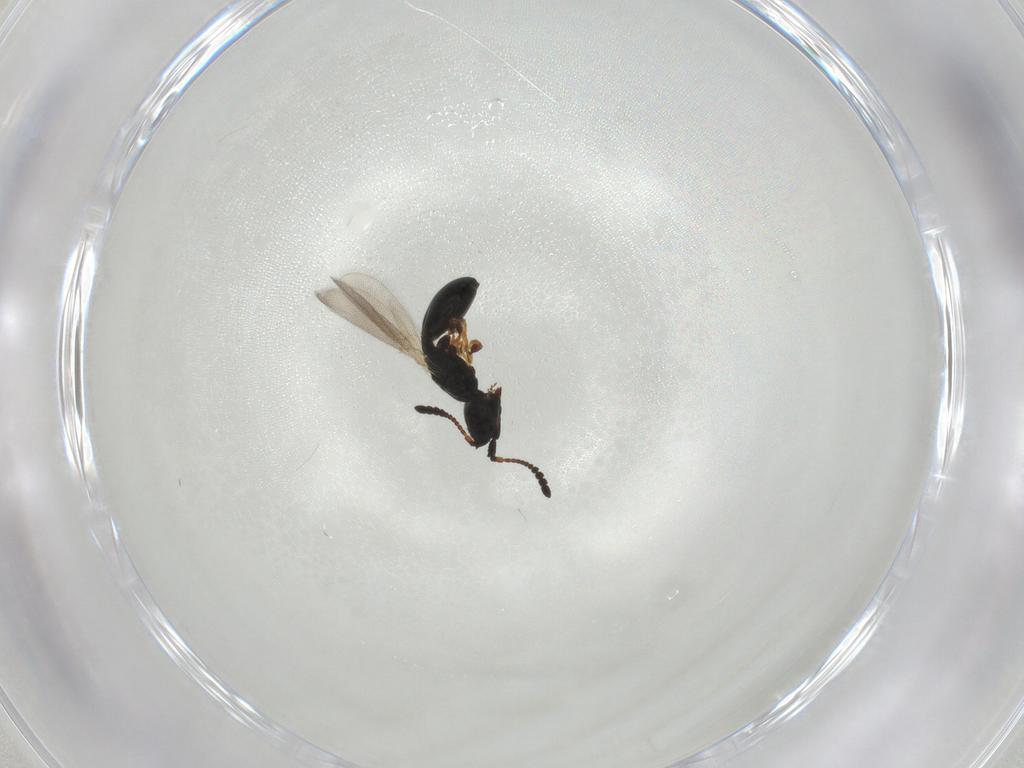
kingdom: Animalia
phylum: Arthropoda
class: Insecta
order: Hymenoptera
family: Diapriidae
